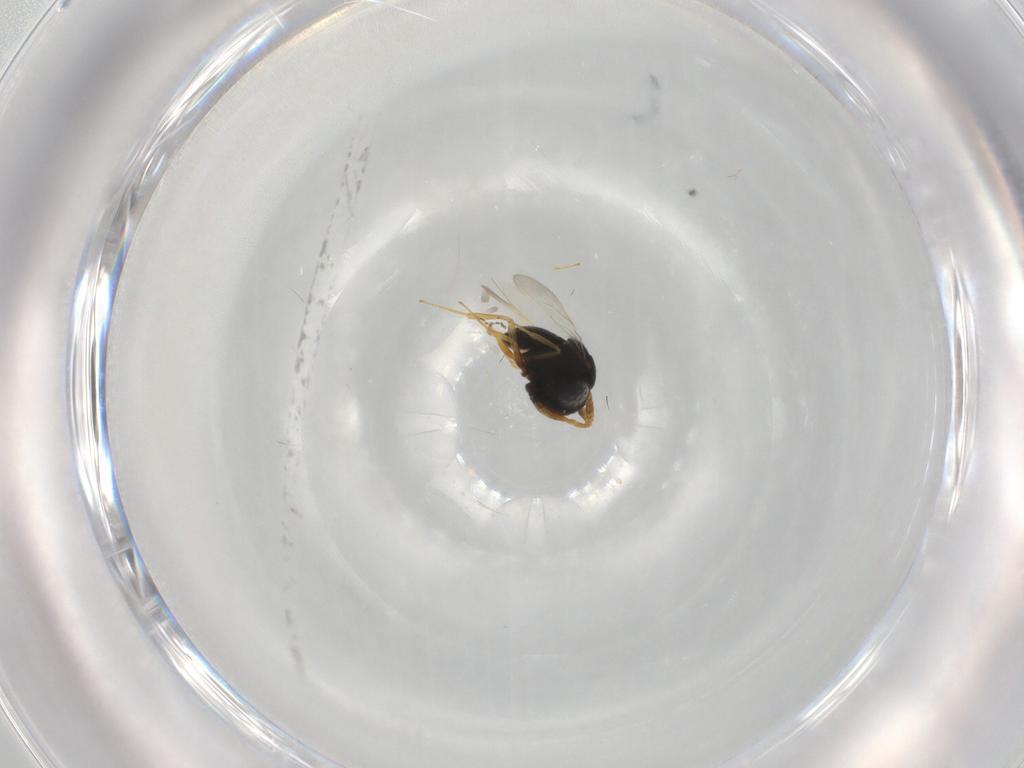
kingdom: Animalia
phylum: Arthropoda
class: Insecta
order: Hymenoptera
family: Scelionidae
